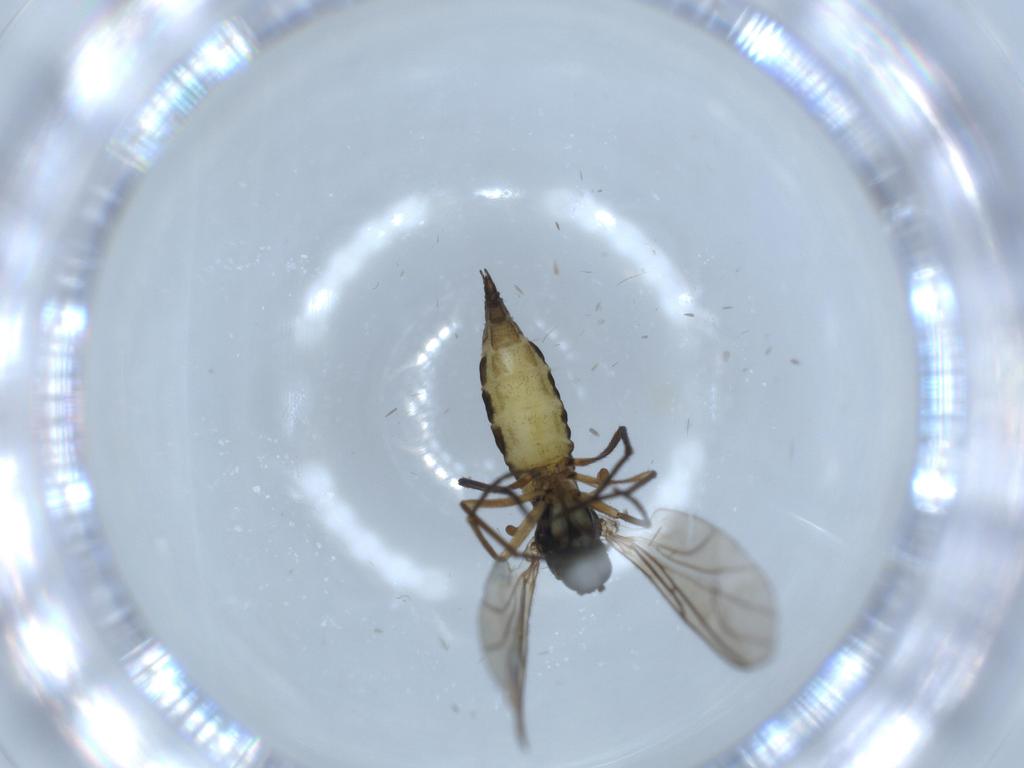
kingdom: Animalia
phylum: Arthropoda
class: Insecta
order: Diptera
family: Sciaridae
